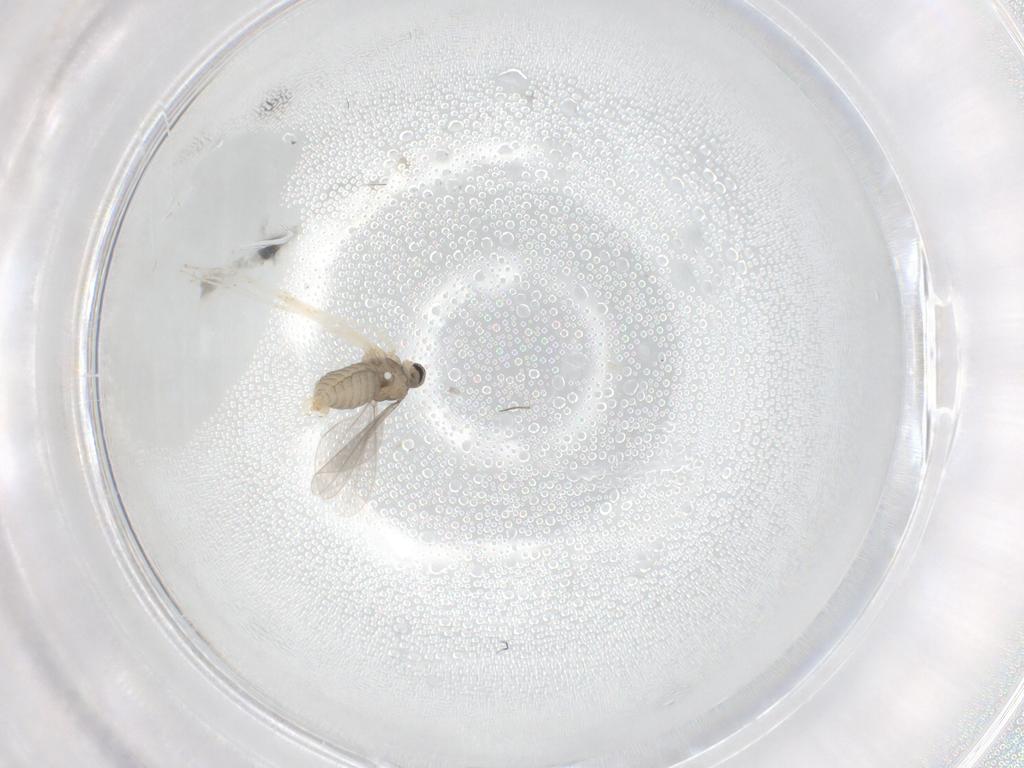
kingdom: Animalia
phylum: Arthropoda
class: Insecta
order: Diptera
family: Cecidomyiidae
